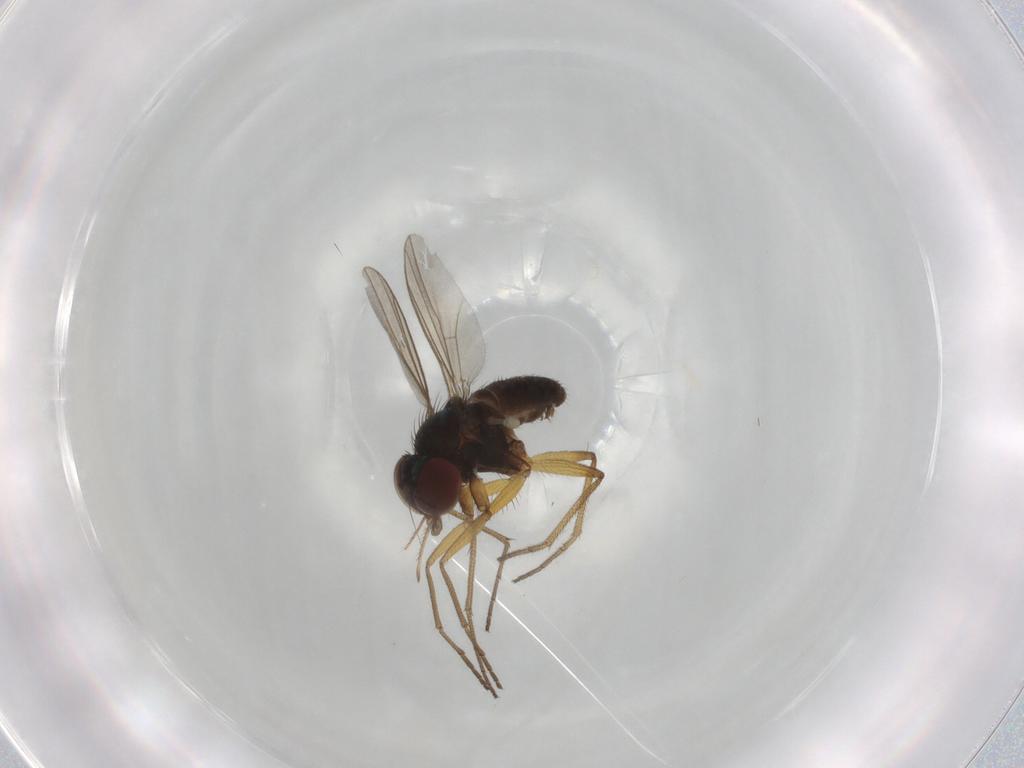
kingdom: Animalia
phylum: Arthropoda
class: Insecta
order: Diptera
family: Dolichopodidae
